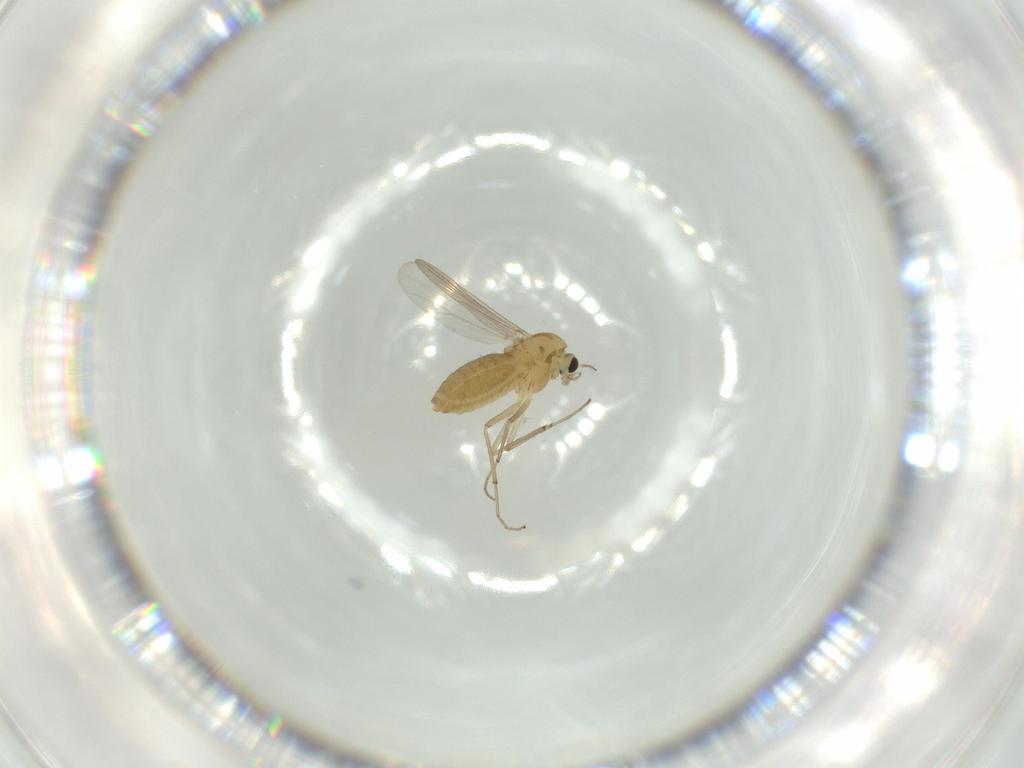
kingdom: Animalia
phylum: Arthropoda
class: Insecta
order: Diptera
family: Chironomidae
